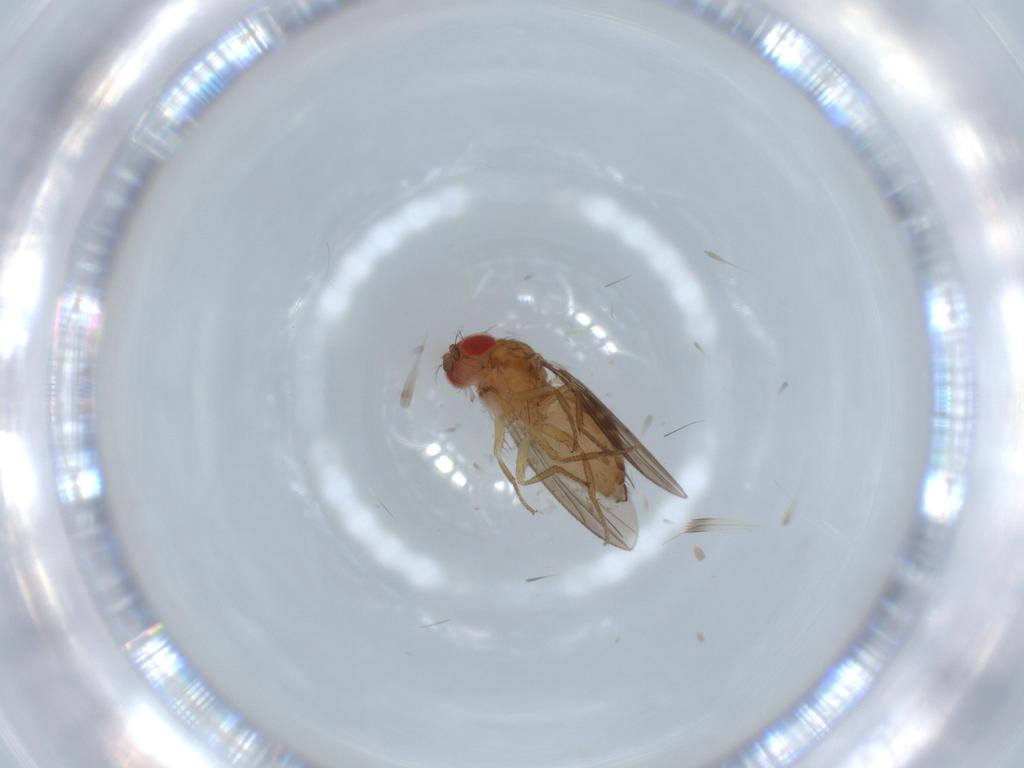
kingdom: Animalia
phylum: Arthropoda
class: Insecta
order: Diptera
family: Drosophilidae
